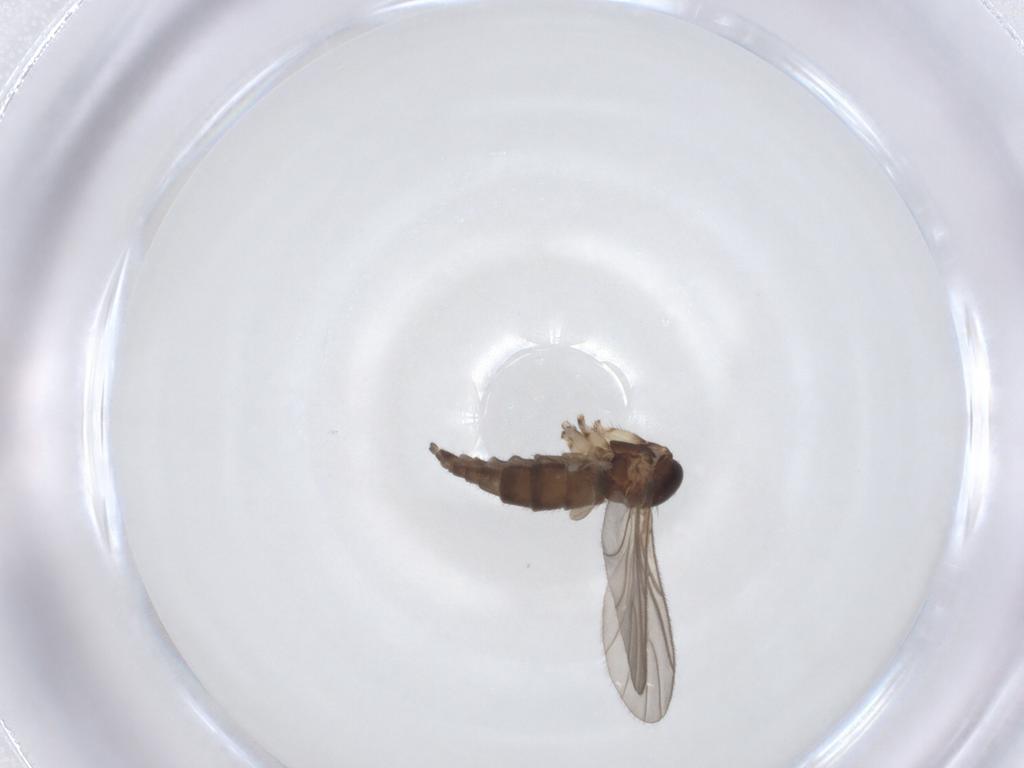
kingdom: Animalia
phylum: Arthropoda
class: Insecta
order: Diptera
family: Sciaridae
